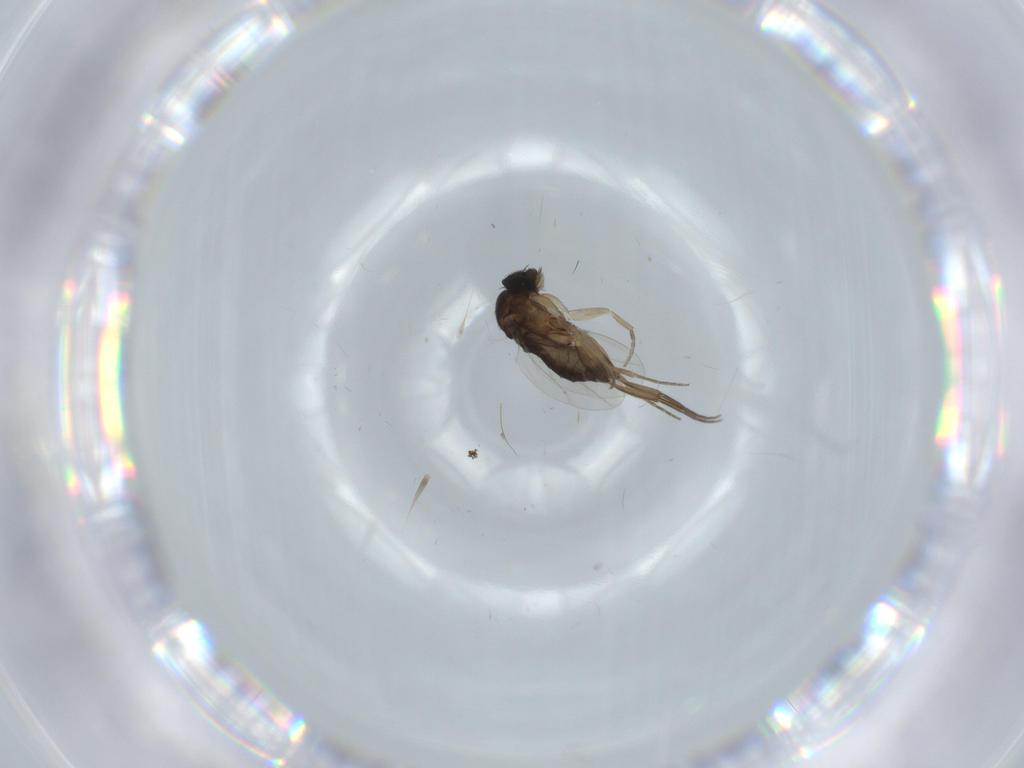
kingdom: Animalia
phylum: Arthropoda
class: Insecta
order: Diptera
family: Phoridae
